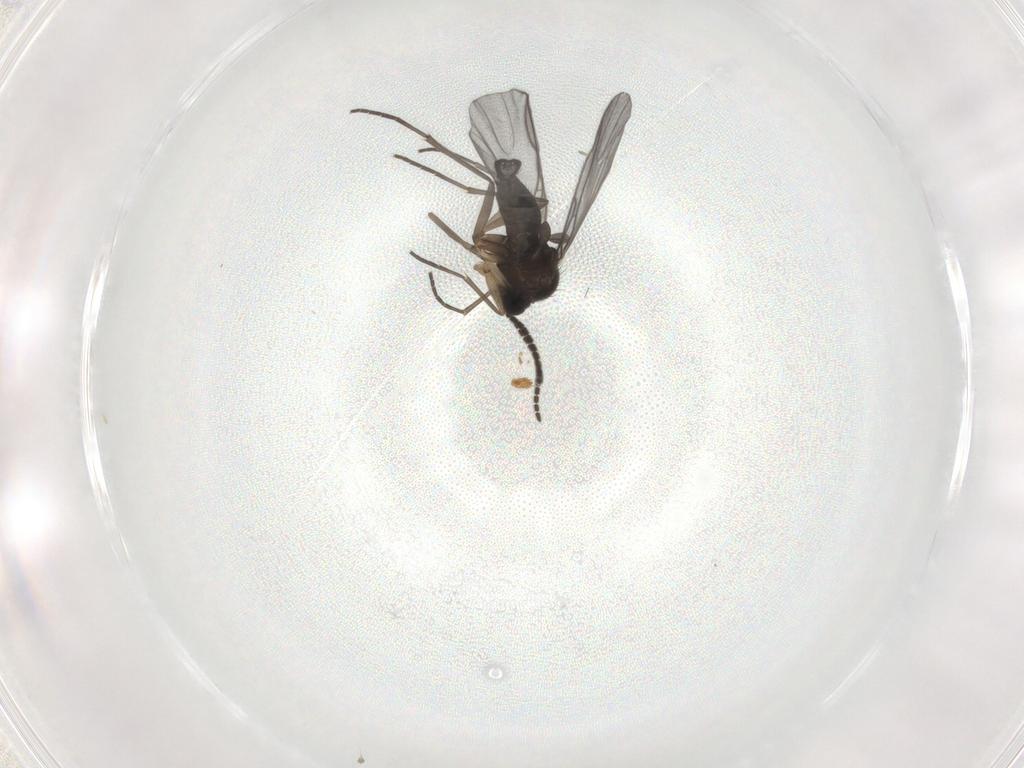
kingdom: Animalia
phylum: Arthropoda
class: Insecta
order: Diptera
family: Sciaridae
